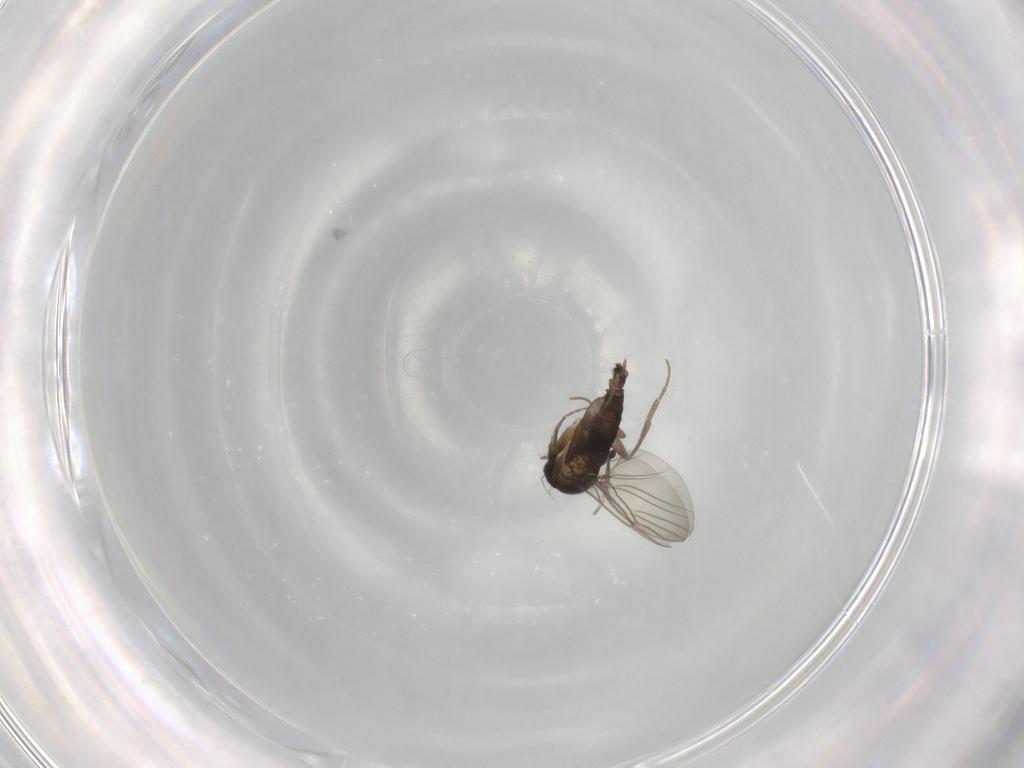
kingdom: Animalia
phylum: Arthropoda
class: Insecta
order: Diptera
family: Phoridae
